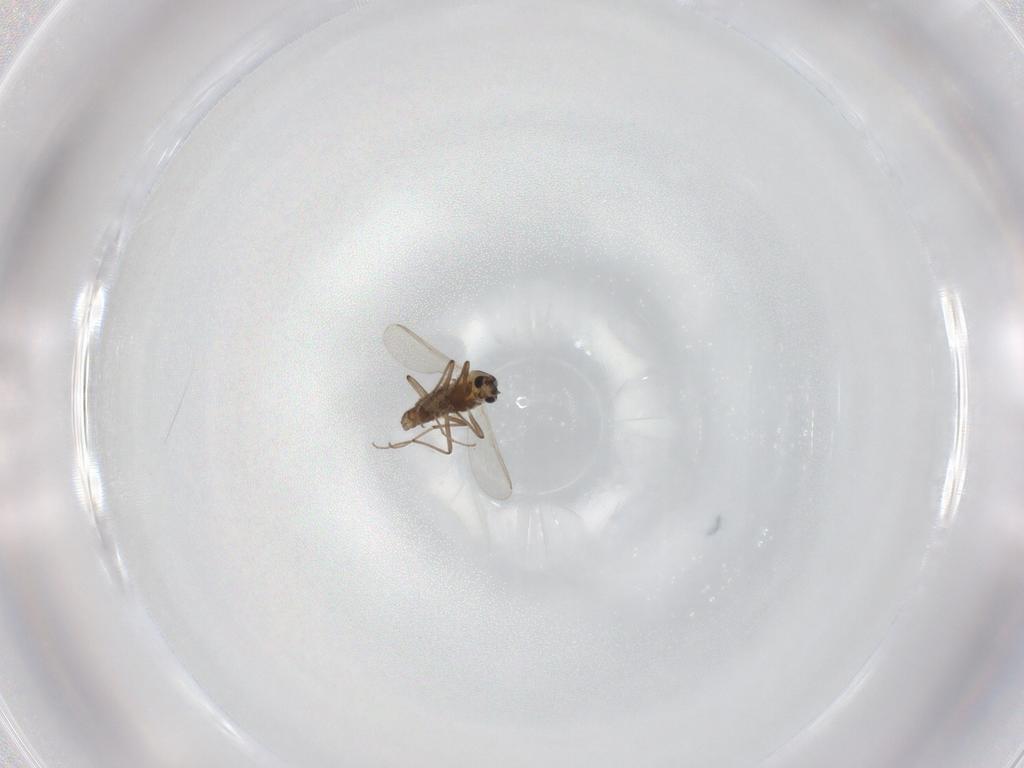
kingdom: Animalia
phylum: Arthropoda
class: Insecta
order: Diptera
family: Chironomidae
